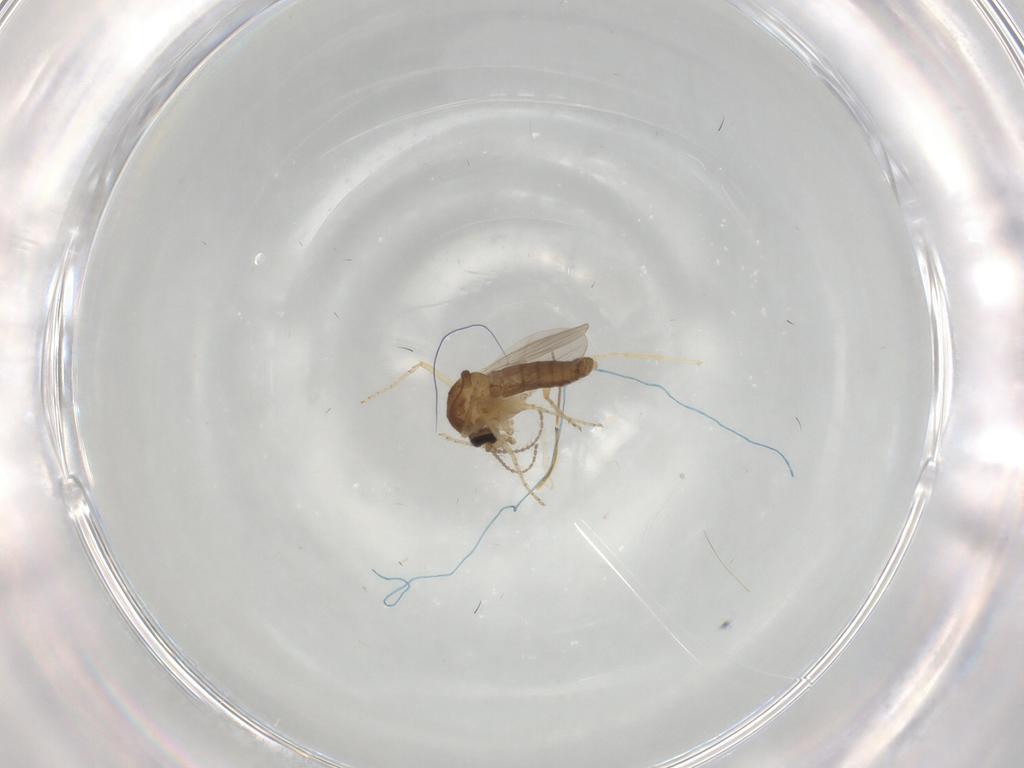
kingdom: Animalia
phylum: Arthropoda
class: Insecta
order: Diptera
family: Ceratopogonidae
